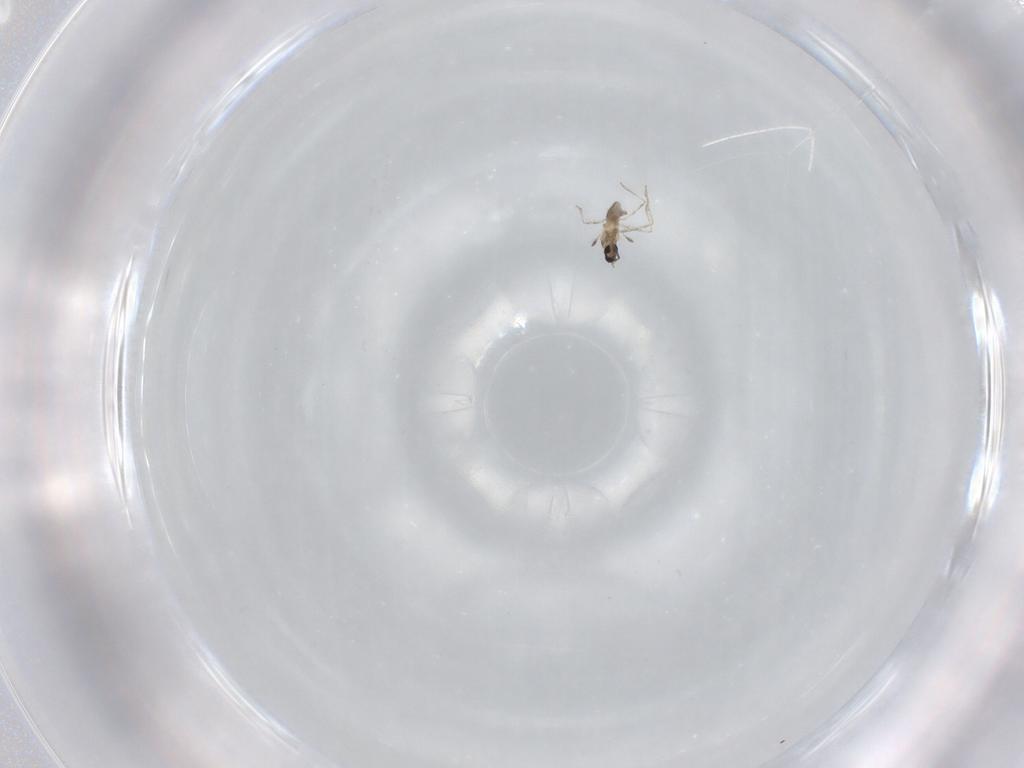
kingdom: Animalia
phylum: Arthropoda
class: Insecta
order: Diptera
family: Cecidomyiidae
